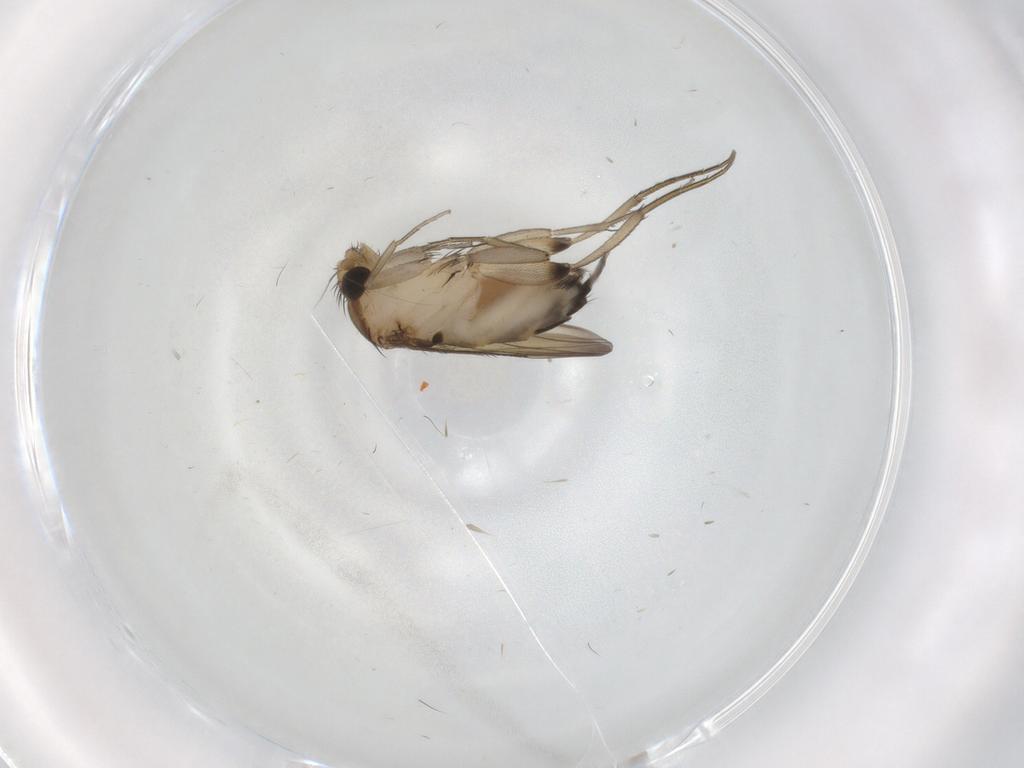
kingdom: Animalia
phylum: Arthropoda
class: Insecta
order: Diptera
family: Phoridae
